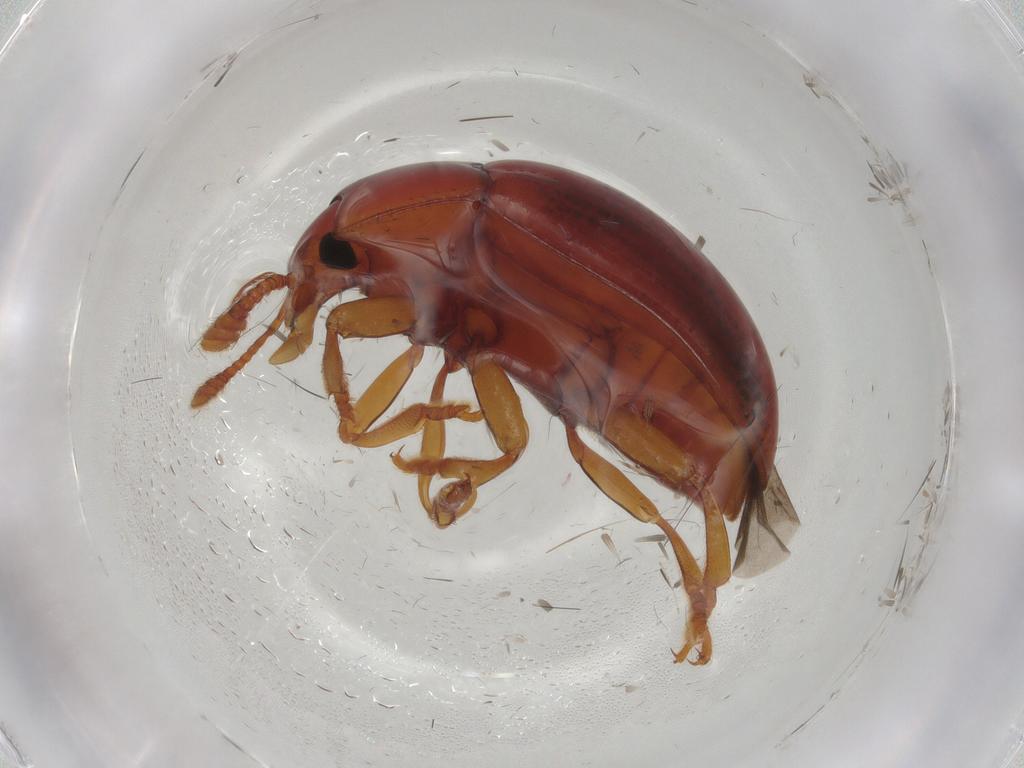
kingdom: Animalia
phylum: Arthropoda
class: Insecta
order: Coleoptera
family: Erotylidae
